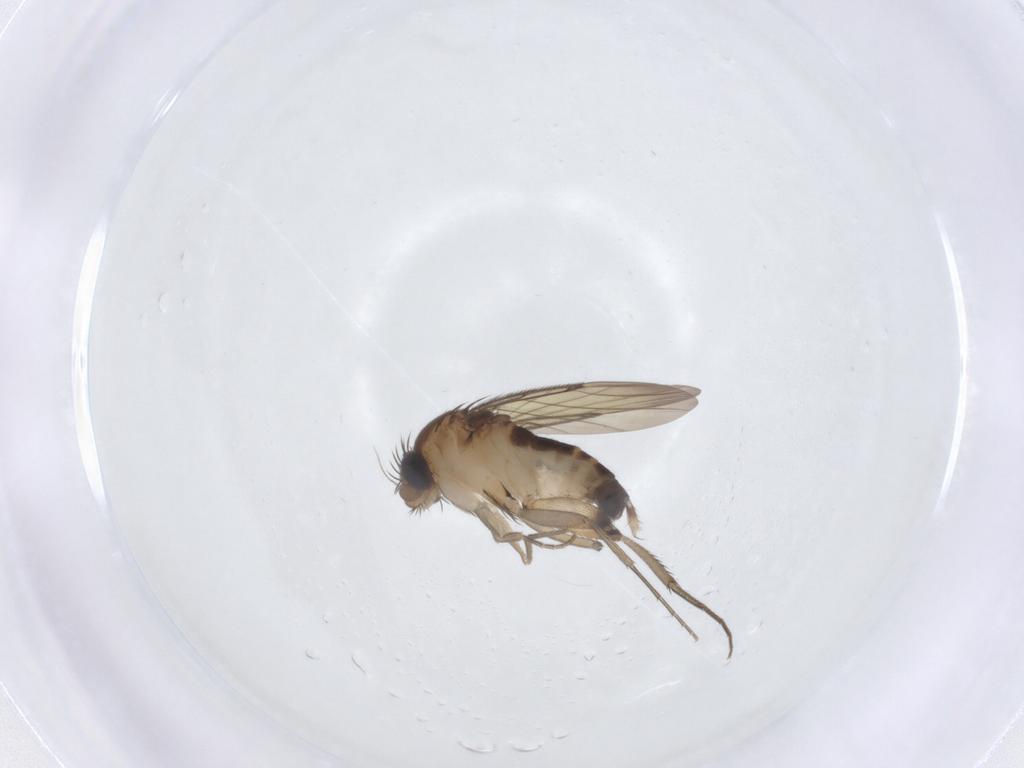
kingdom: Animalia
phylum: Arthropoda
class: Insecta
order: Diptera
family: Phoridae
